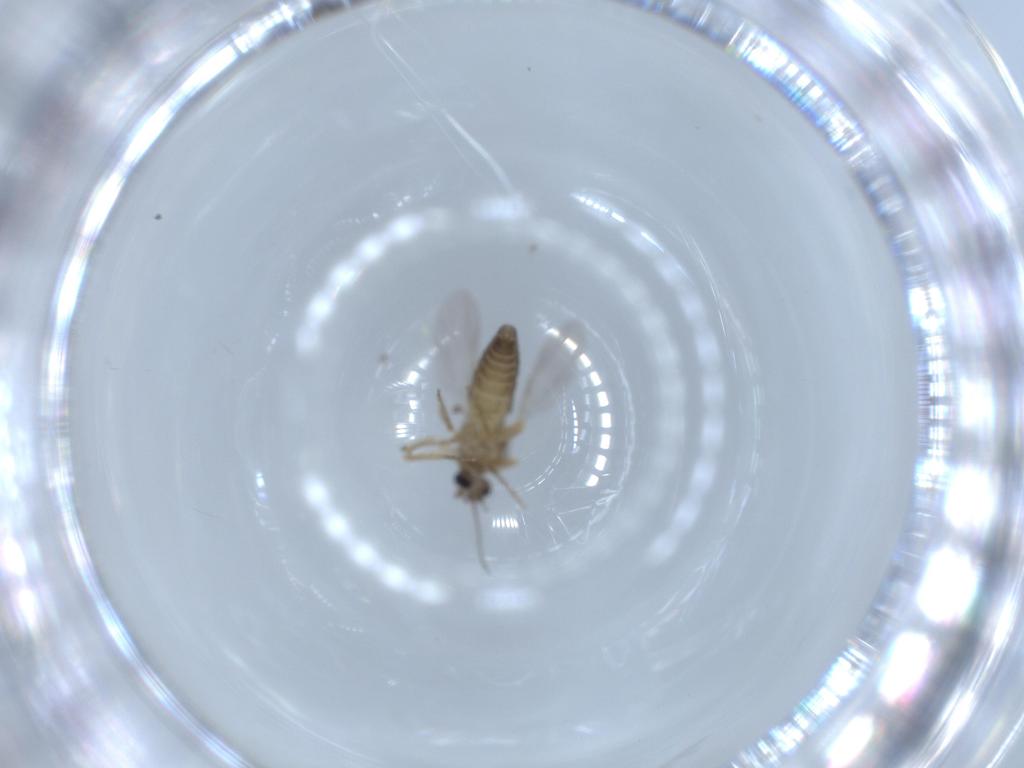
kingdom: Animalia
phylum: Arthropoda
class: Insecta
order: Diptera
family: Ceratopogonidae
